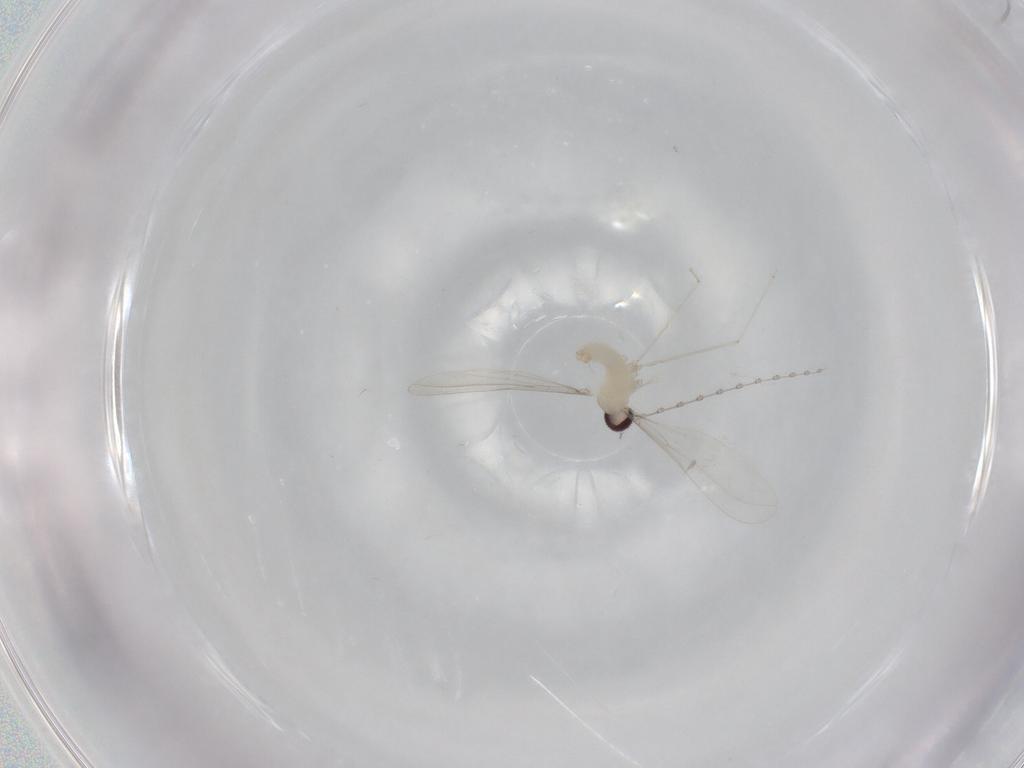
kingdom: Animalia
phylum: Arthropoda
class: Insecta
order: Diptera
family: Cecidomyiidae
